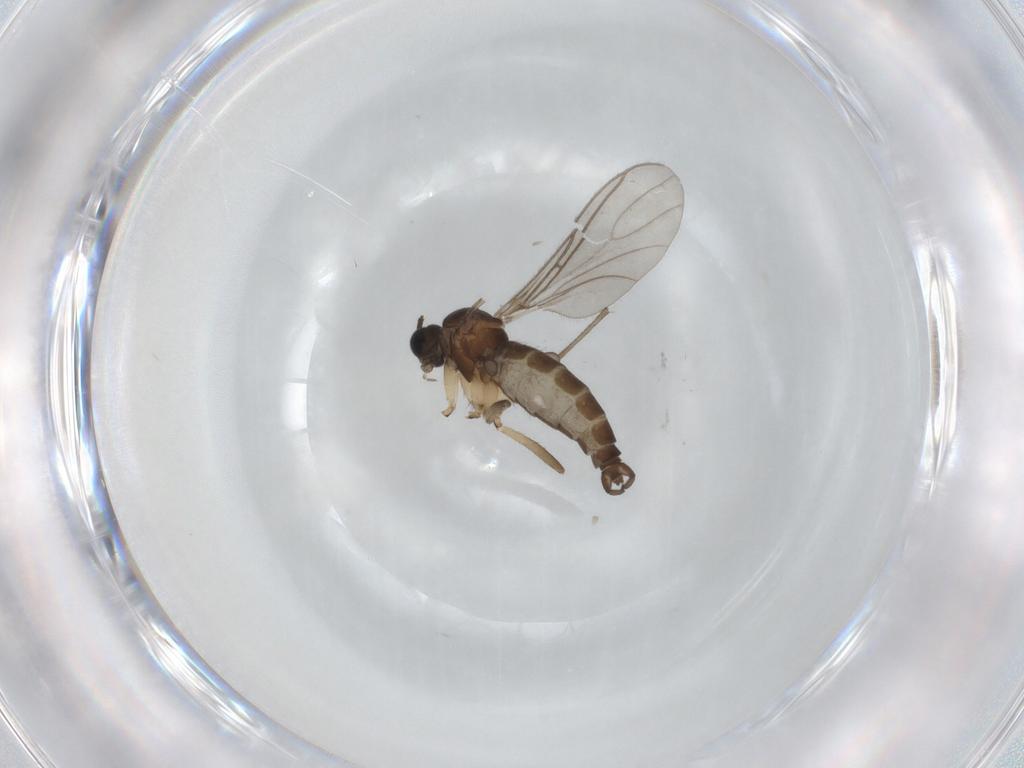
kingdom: Animalia
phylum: Arthropoda
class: Insecta
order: Diptera
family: Sciaridae
